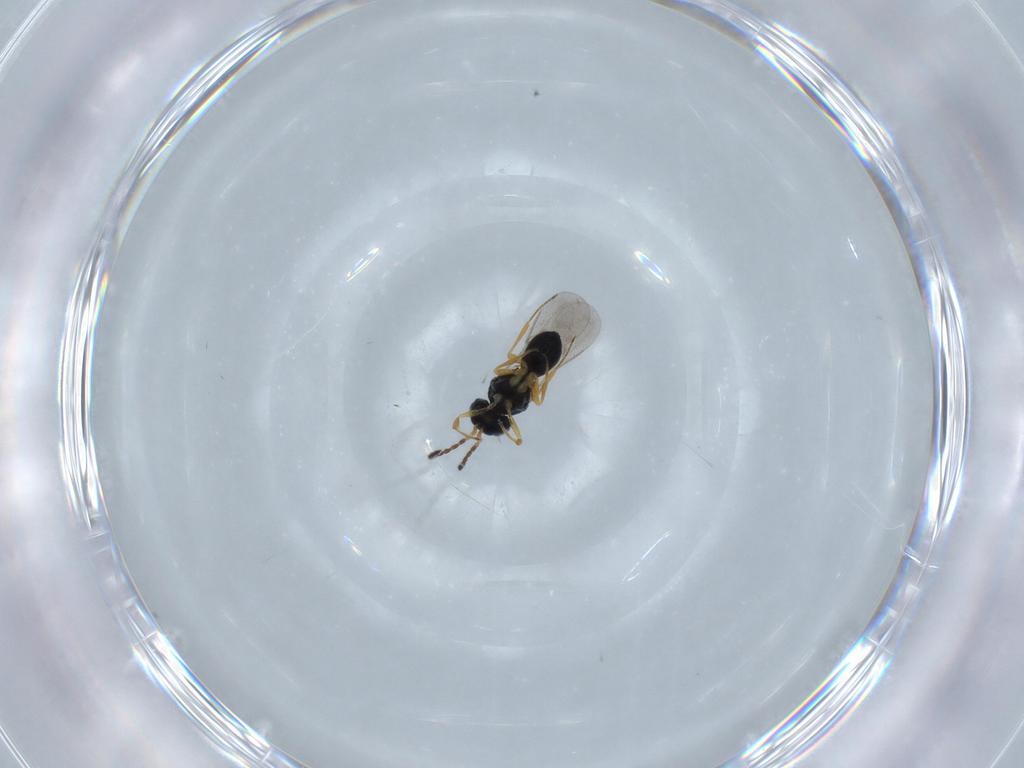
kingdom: Animalia
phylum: Arthropoda
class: Insecta
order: Hymenoptera
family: Scelionidae
